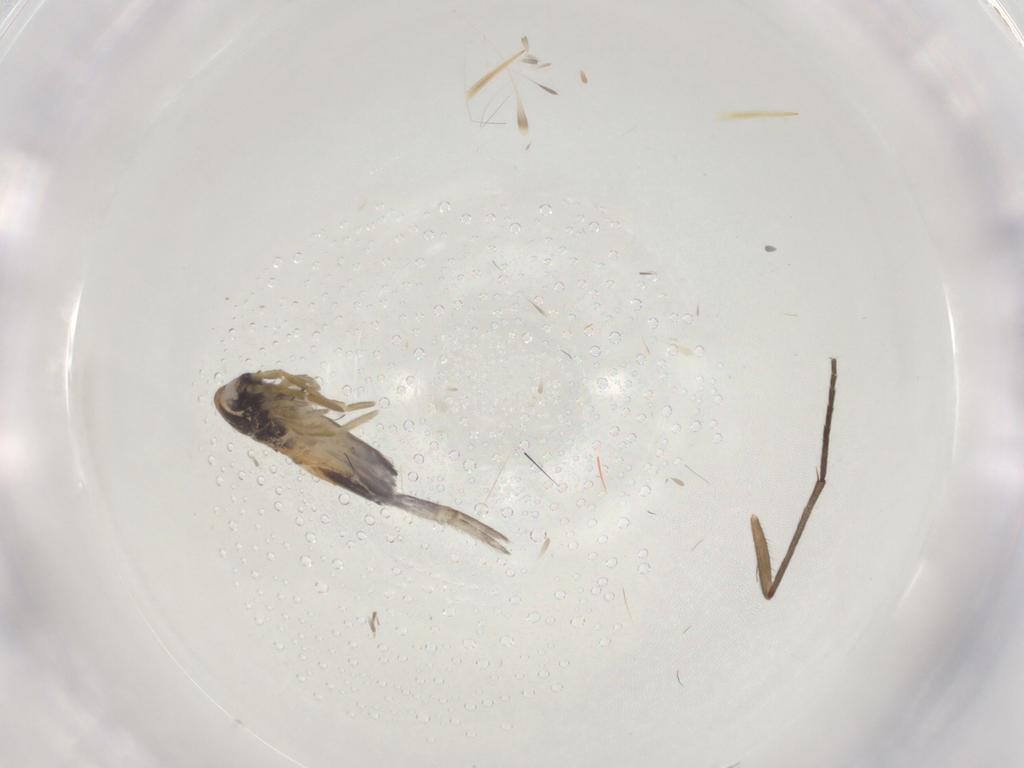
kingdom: Animalia
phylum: Arthropoda
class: Collembola
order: Entomobryomorpha
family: Entomobryidae
